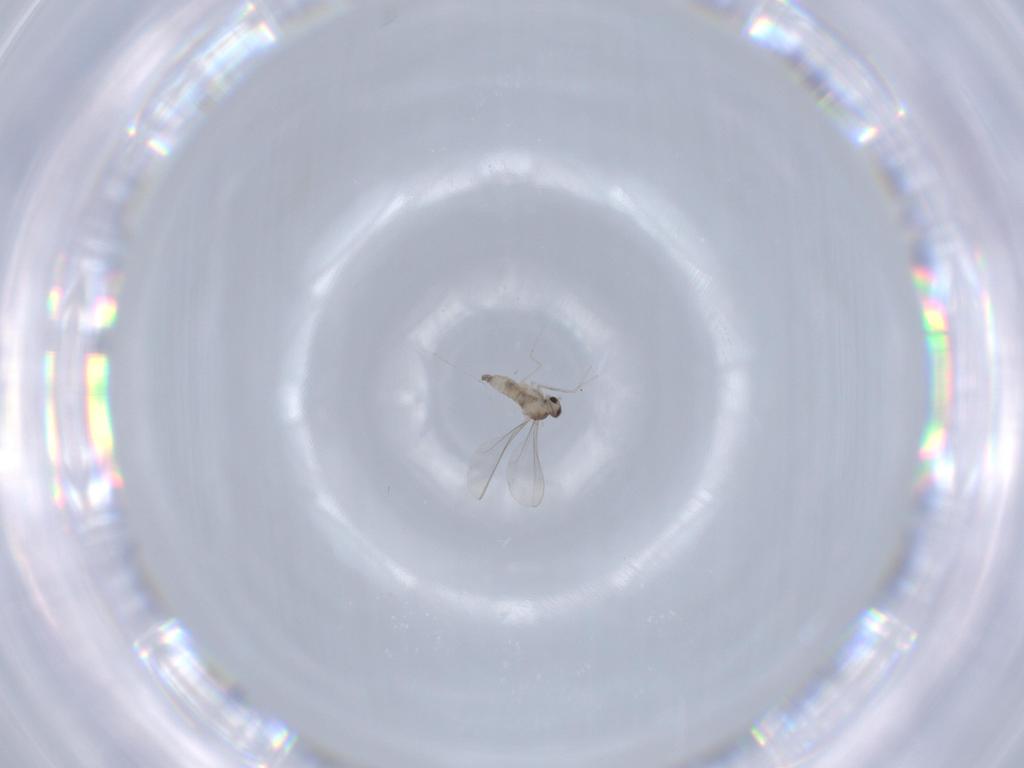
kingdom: Animalia
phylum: Arthropoda
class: Insecta
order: Diptera
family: Cecidomyiidae
